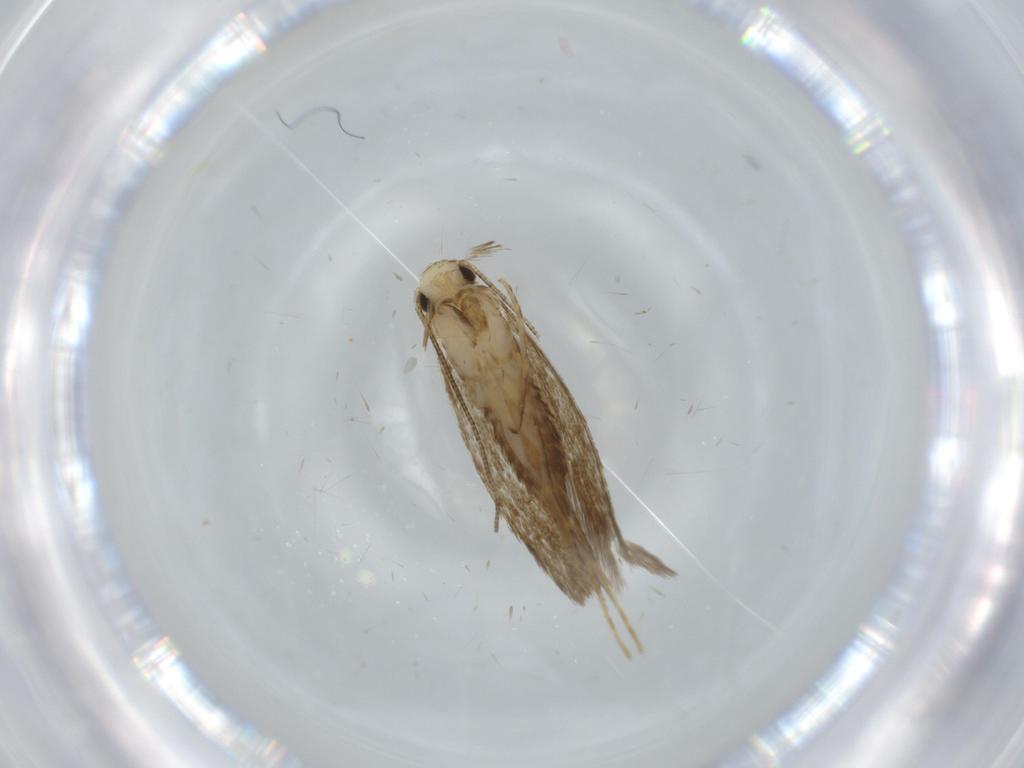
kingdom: Animalia
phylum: Arthropoda
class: Insecta
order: Lepidoptera
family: Tineidae
